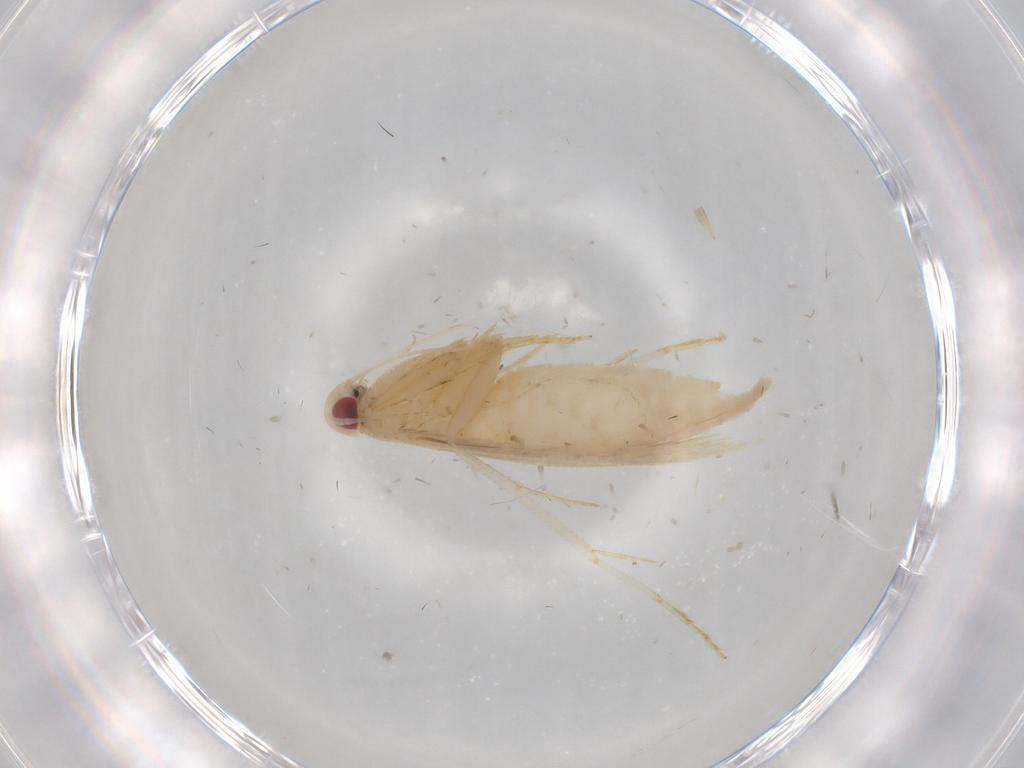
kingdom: Animalia
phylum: Arthropoda
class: Insecta
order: Lepidoptera
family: Cosmopterigidae
